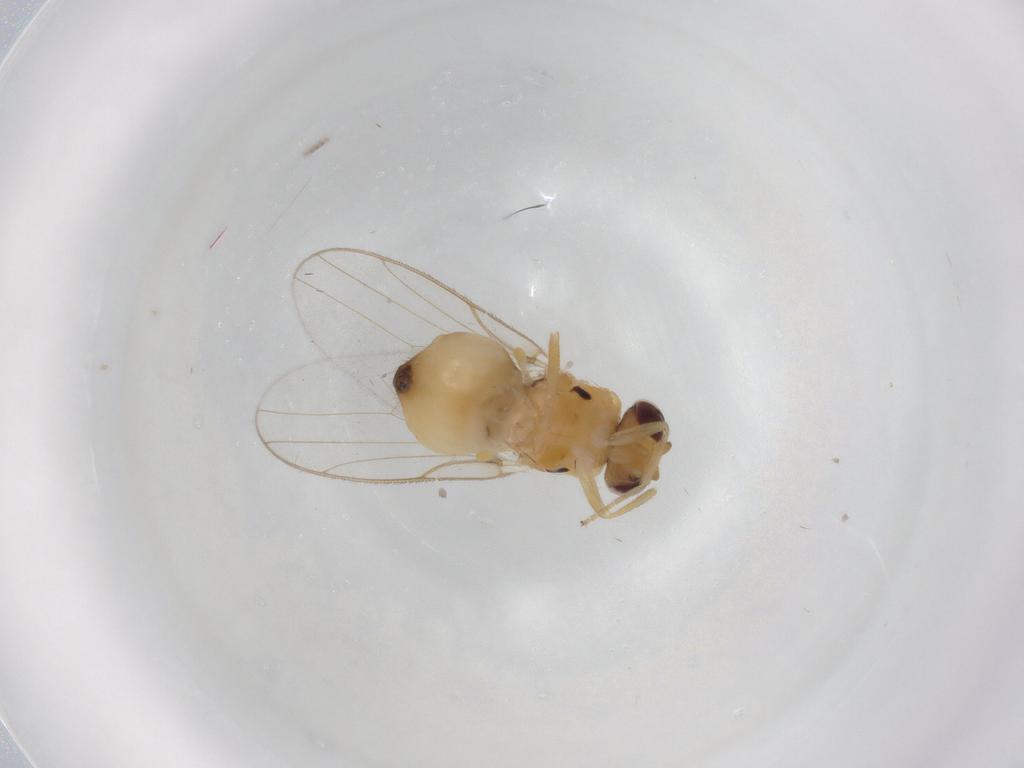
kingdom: Animalia
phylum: Arthropoda
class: Insecta
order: Diptera
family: Chloropidae
